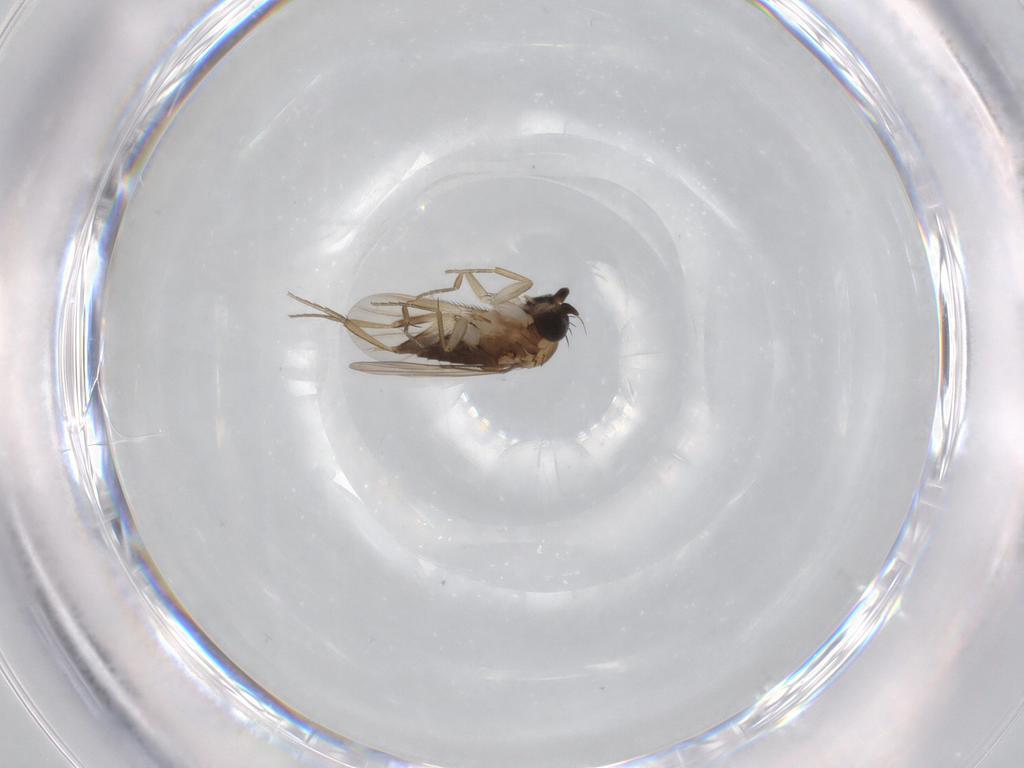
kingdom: Animalia
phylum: Arthropoda
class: Insecta
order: Diptera
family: Phoridae
